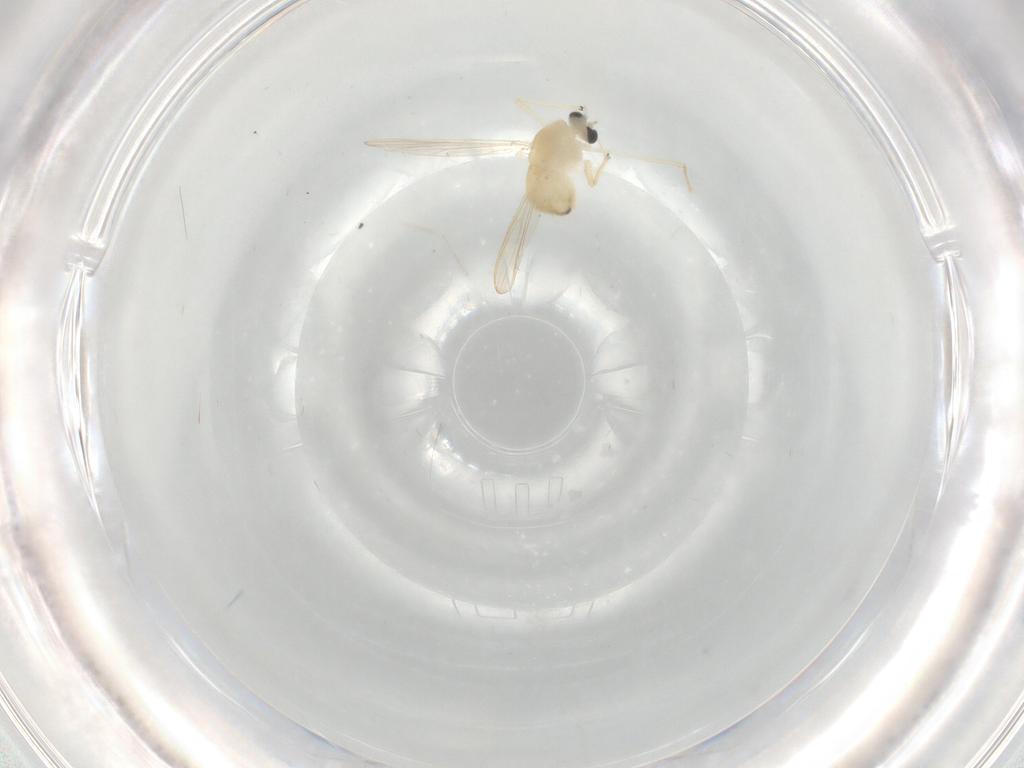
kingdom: Animalia
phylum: Arthropoda
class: Insecta
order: Diptera
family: Chironomidae
